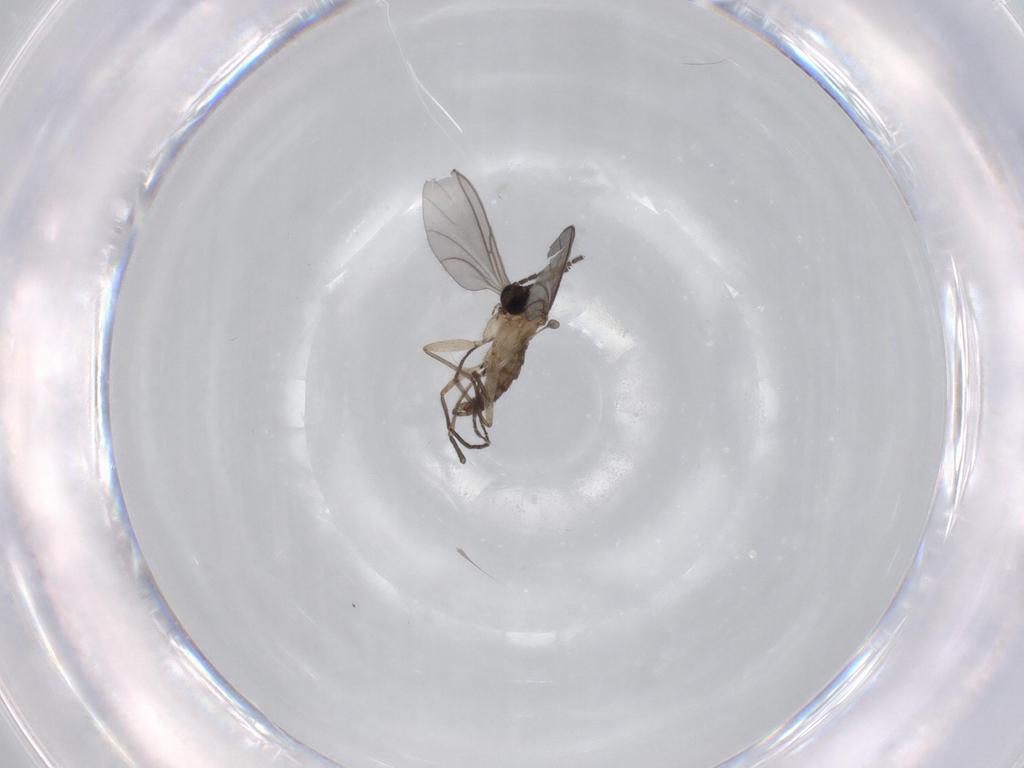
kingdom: Animalia
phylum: Arthropoda
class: Insecta
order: Diptera
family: Sciaridae
